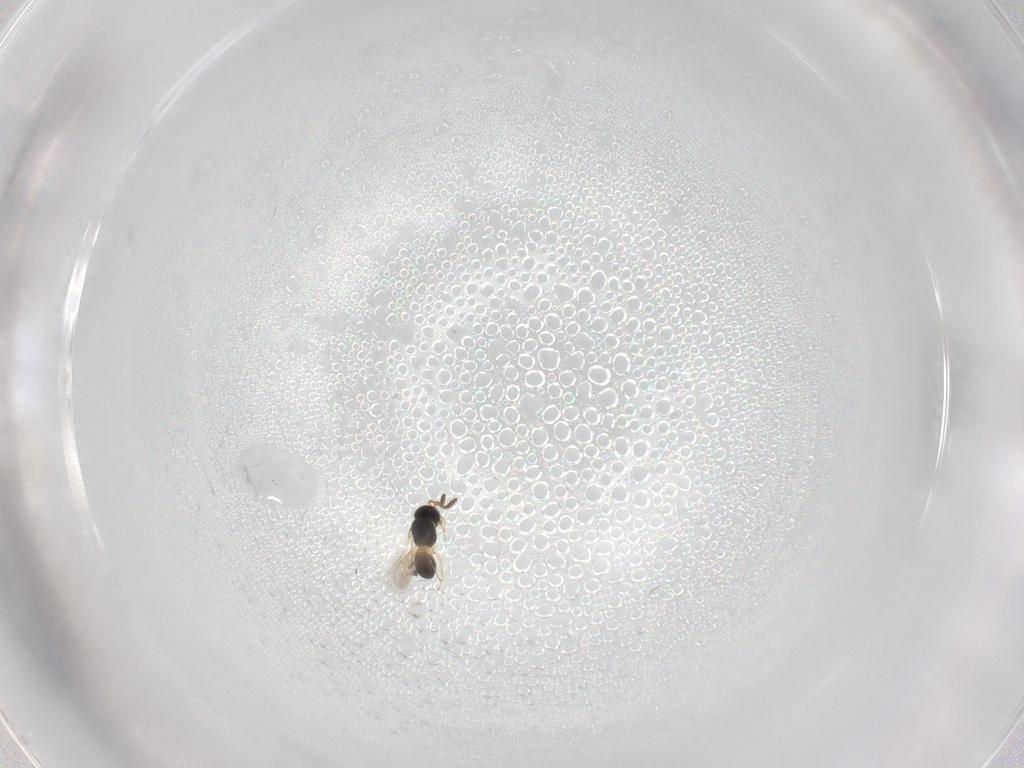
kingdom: Animalia
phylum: Arthropoda
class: Insecta
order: Hymenoptera
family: Scelionidae
